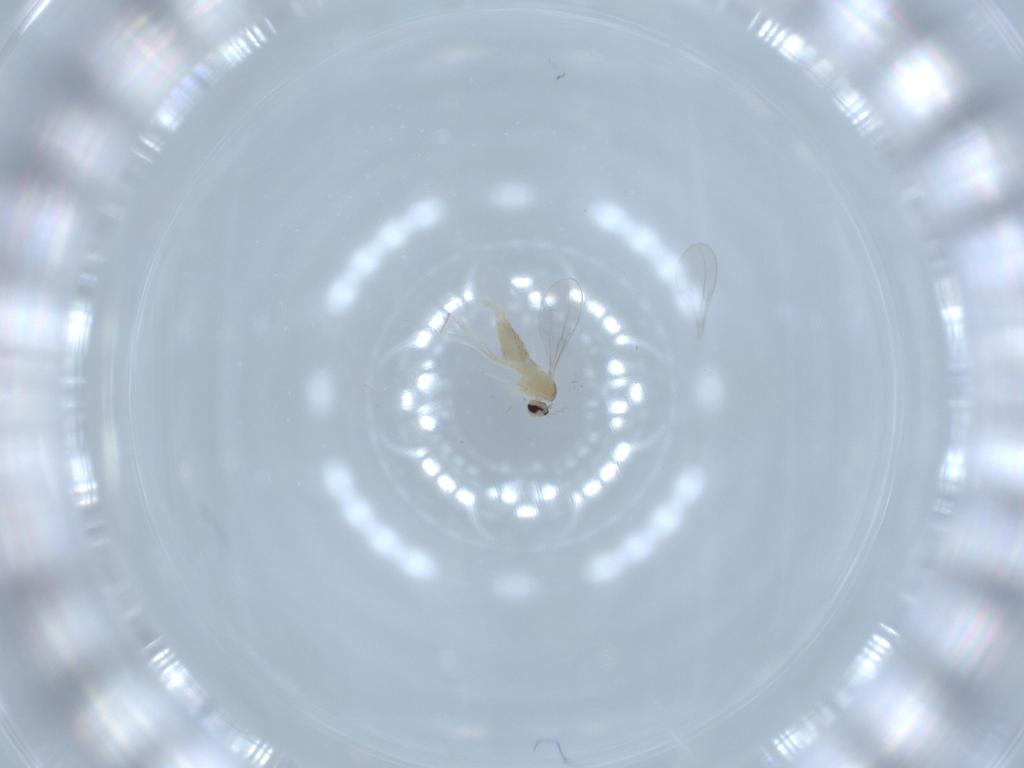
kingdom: Animalia
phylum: Arthropoda
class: Insecta
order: Diptera
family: Cecidomyiidae
